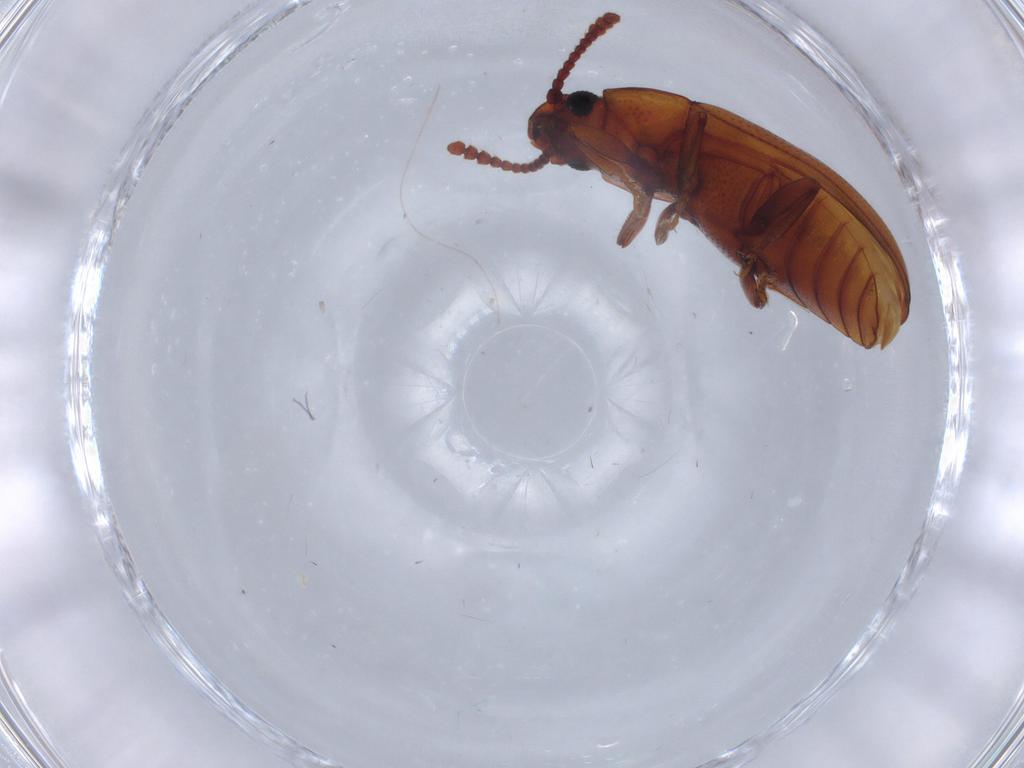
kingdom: Animalia
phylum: Arthropoda
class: Insecta
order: Coleoptera
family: Erotylidae
